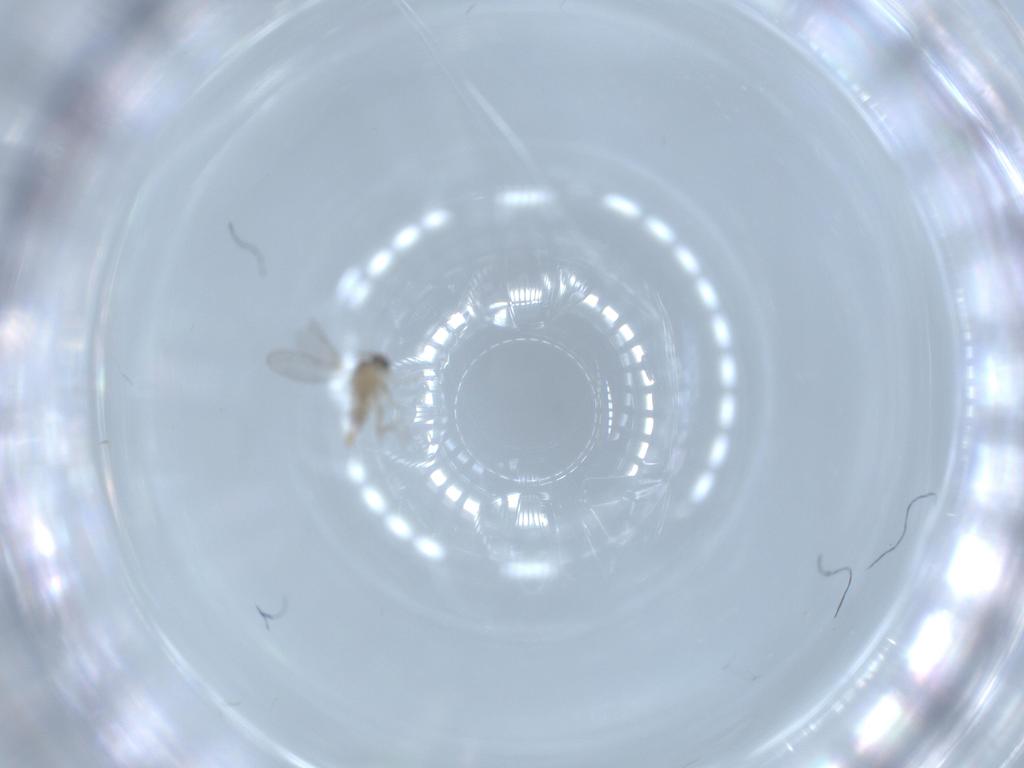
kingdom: Animalia
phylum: Arthropoda
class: Insecta
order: Diptera
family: Cecidomyiidae
